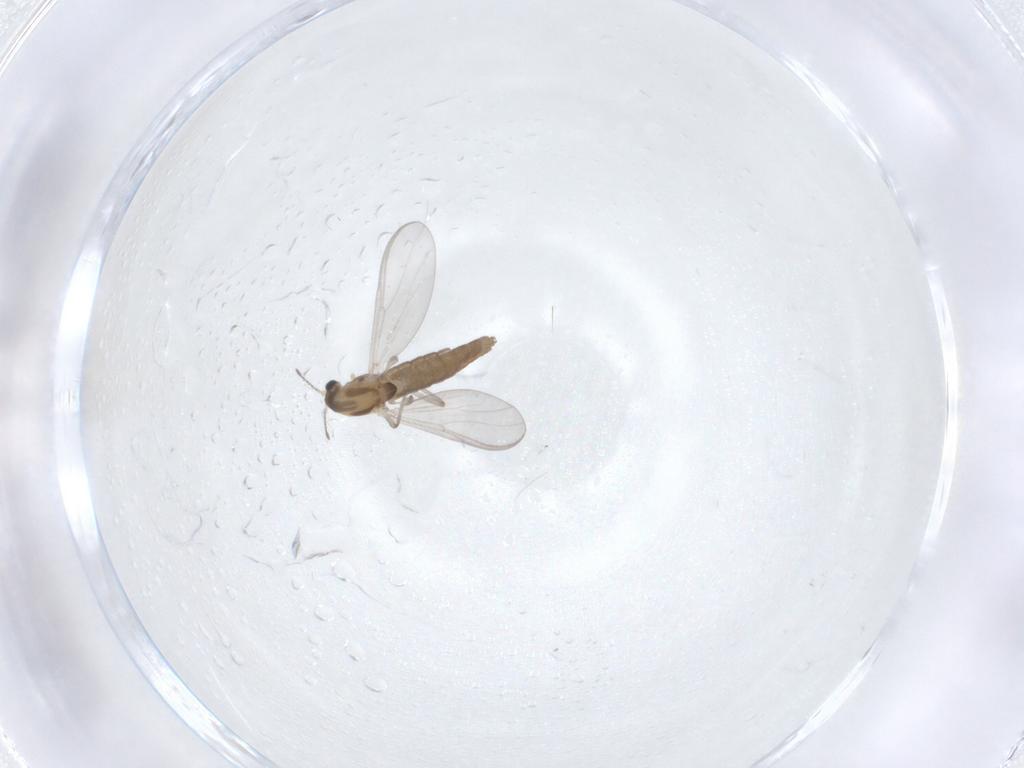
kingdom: Animalia
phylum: Arthropoda
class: Insecta
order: Diptera
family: Chironomidae
